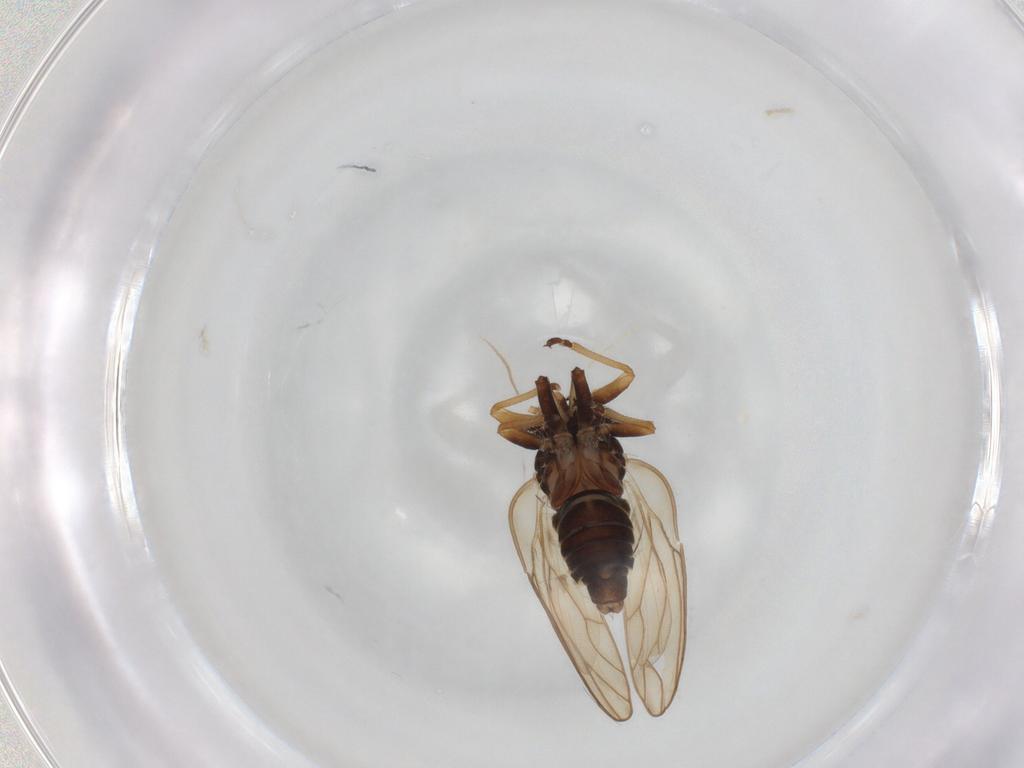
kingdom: Animalia
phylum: Arthropoda
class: Insecta
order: Hemiptera
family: Psyllidae
